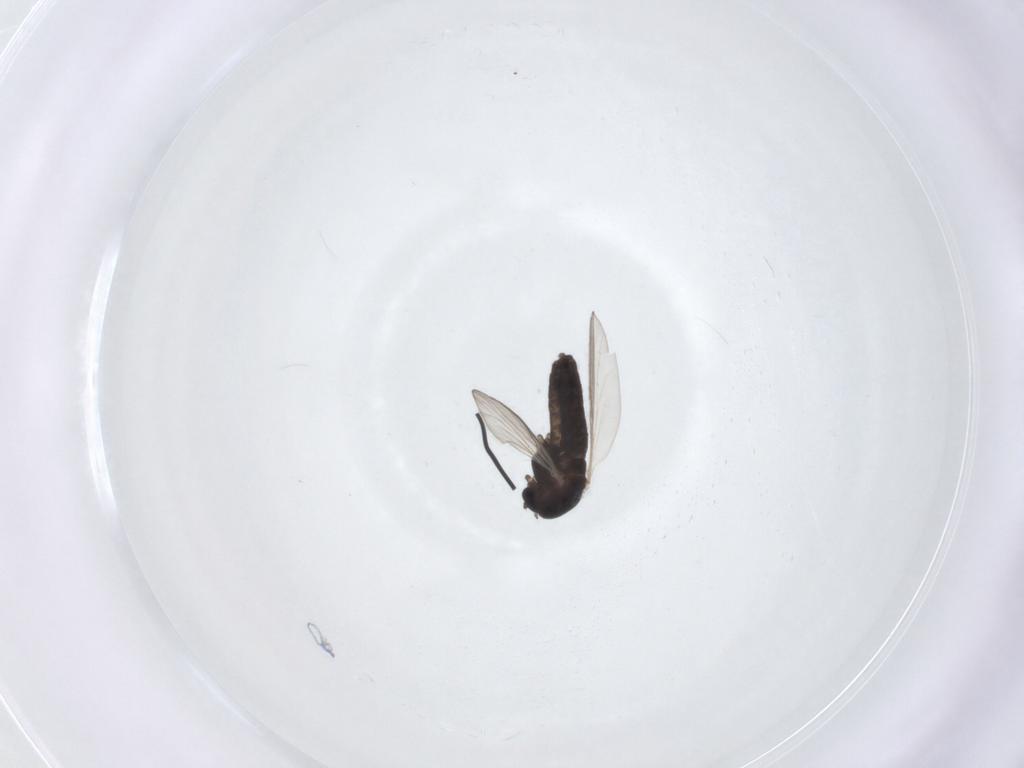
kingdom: Animalia
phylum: Arthropoda
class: Insecta
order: Diptera
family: Chironomidae
